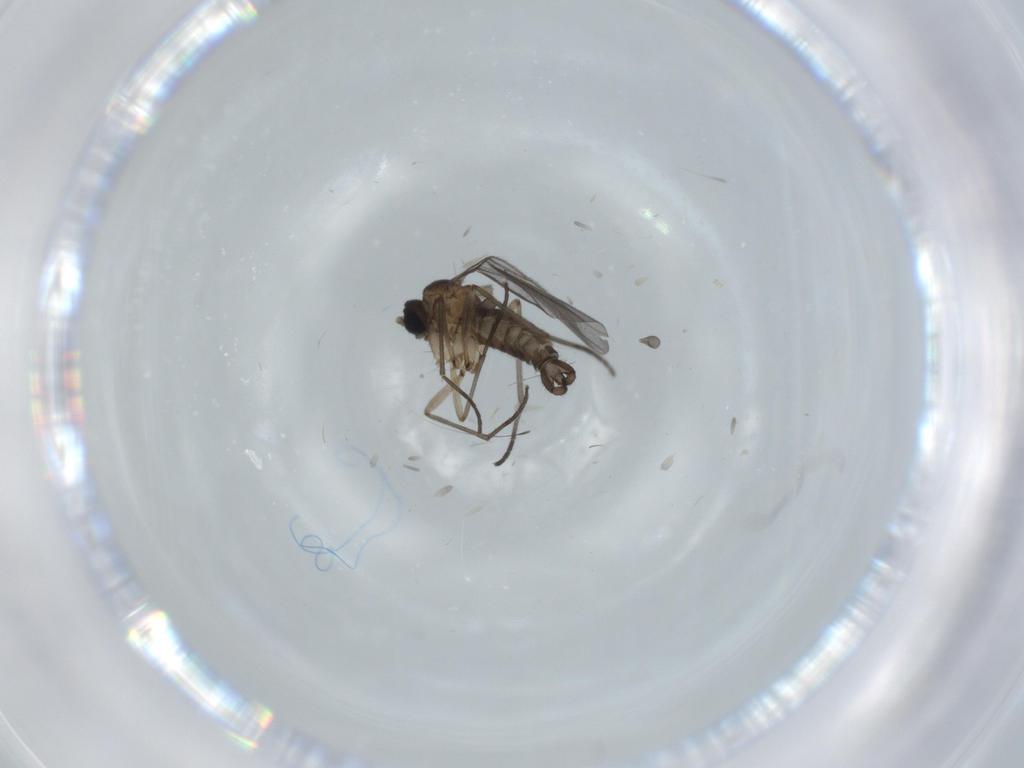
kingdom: Animalia
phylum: Arthropoda
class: Insecta
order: Diptera
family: Sciaridae
